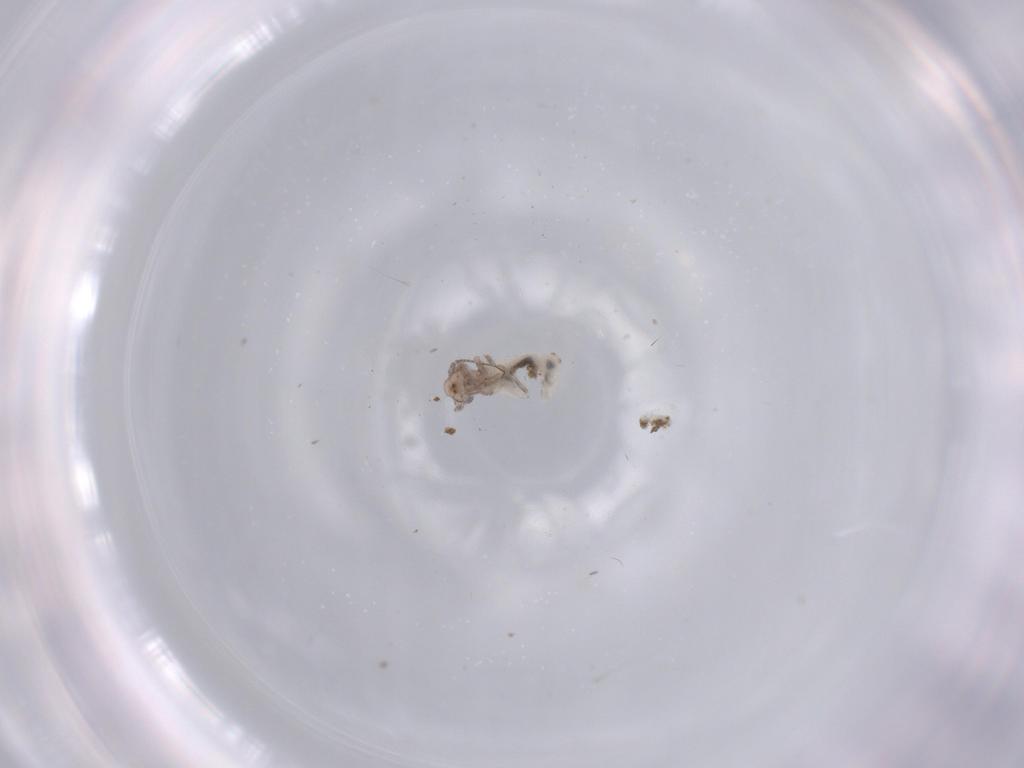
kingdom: Animalia
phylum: Arthropoda
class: Insecta
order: Psocodea
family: Lepidopsocidae
